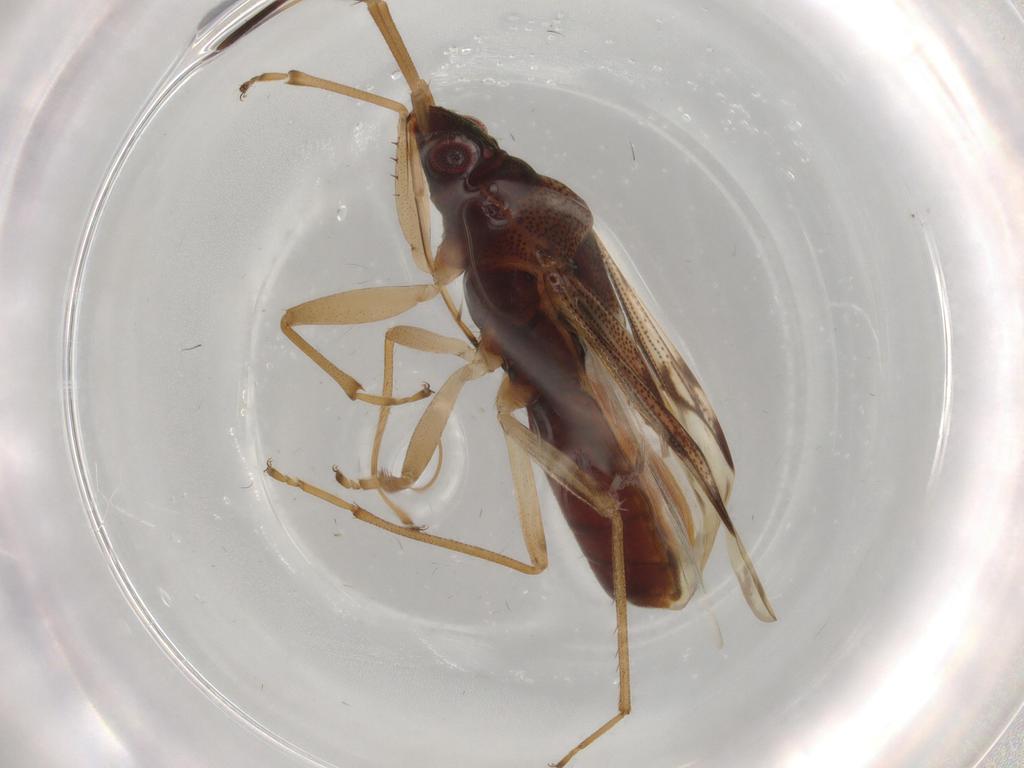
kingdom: Animalia
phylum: Arthropoda
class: Insecta
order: Hemiptera
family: Rhyparochromidae
